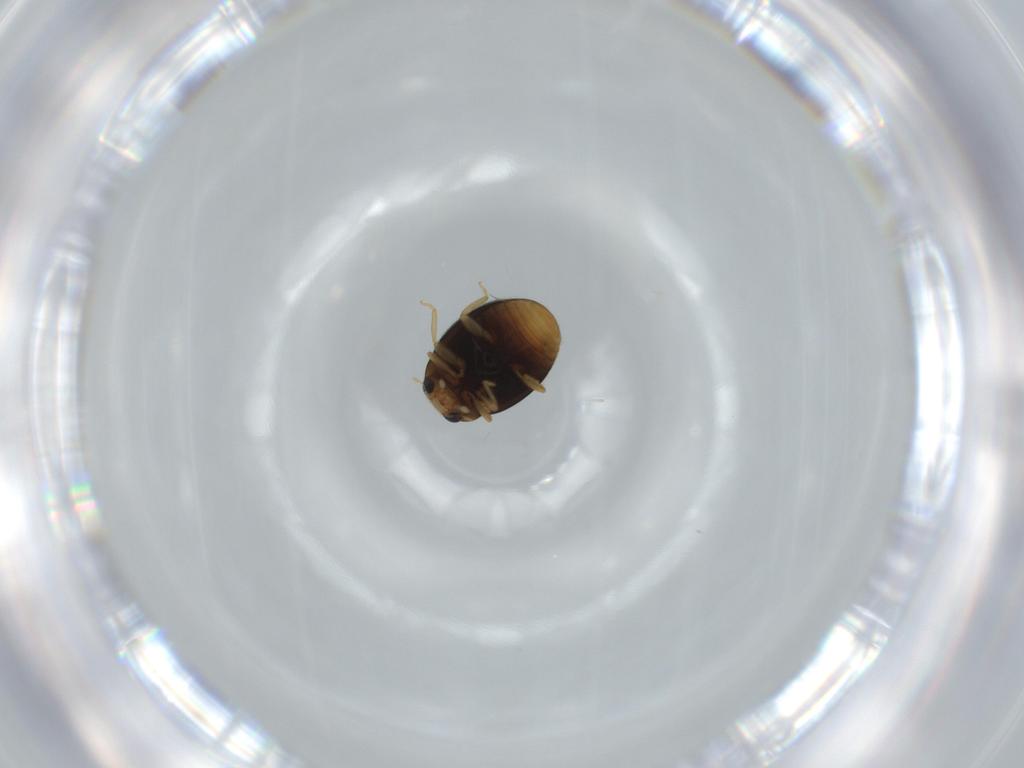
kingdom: Animalia
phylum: Arthropoda
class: Insecta
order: Coleoptera
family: Coccinellidae
